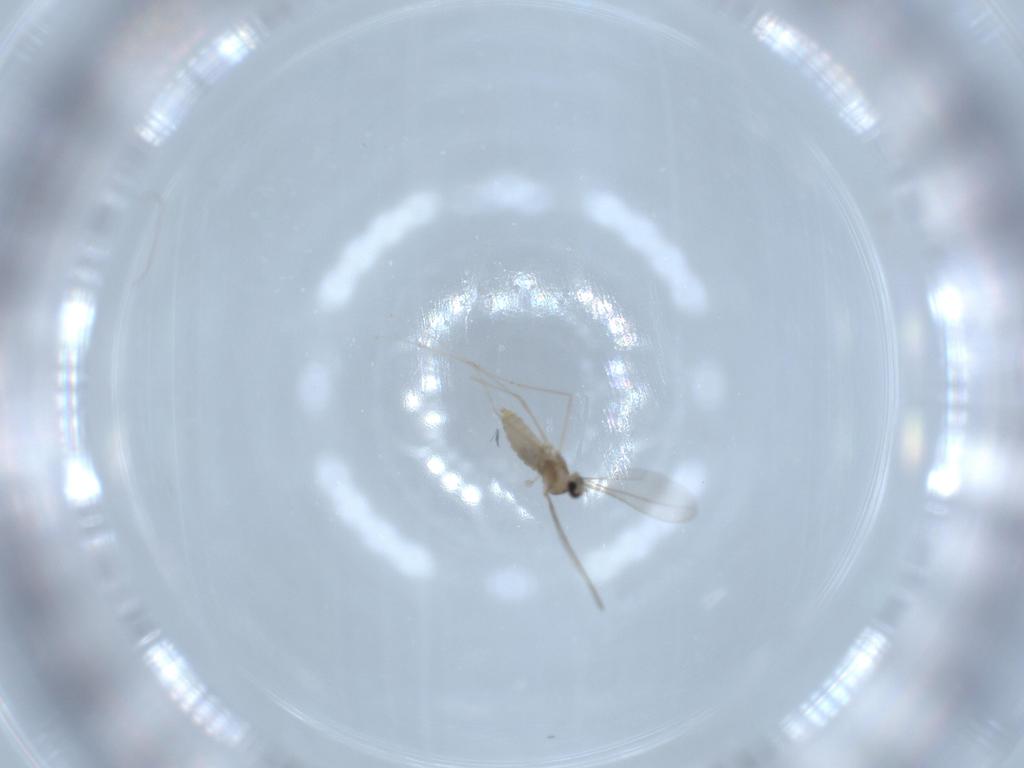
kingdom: Animalia
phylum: Arthropoda
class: Insecta
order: Diptera
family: Cecidomyiidae
